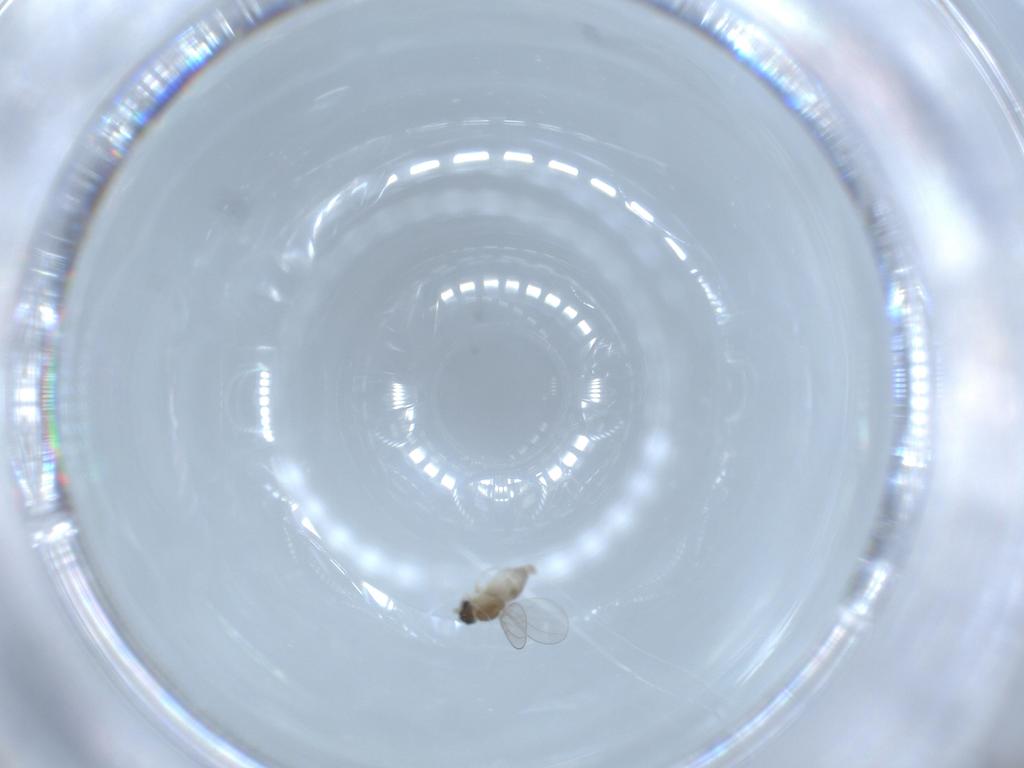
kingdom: Animalia
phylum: Arthropoda
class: Insecta
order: Diptera
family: Cecidomyiidae
